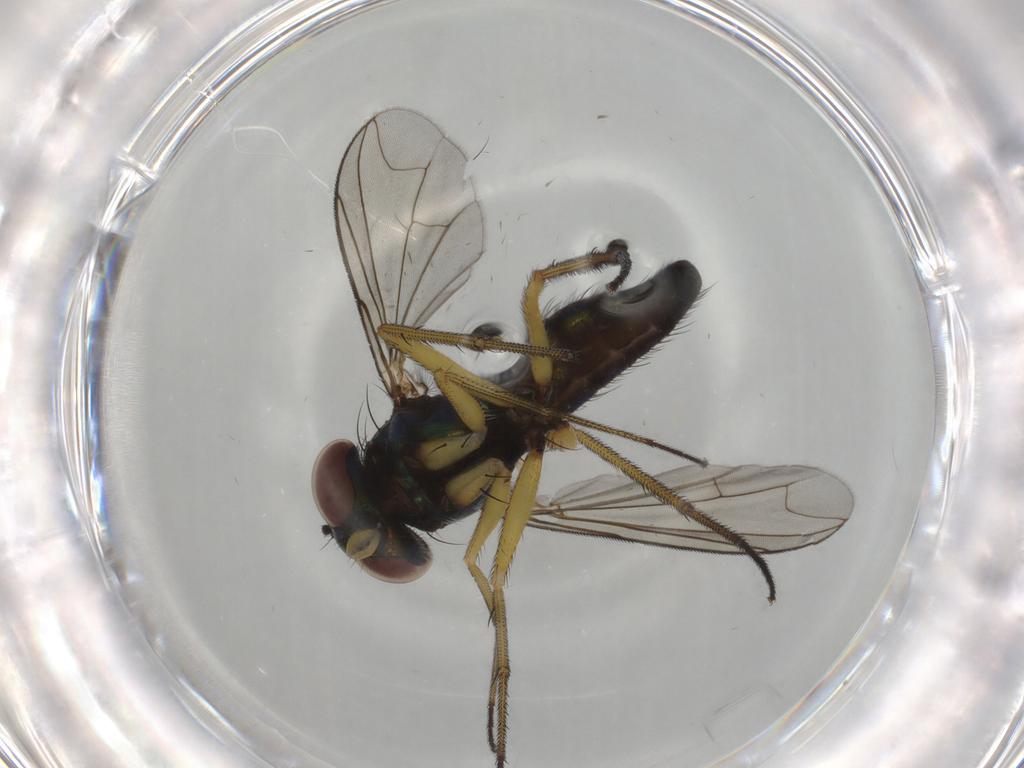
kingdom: Animalia
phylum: Arthropoda
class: Insecta
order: Diptera
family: Dolichopodidae
